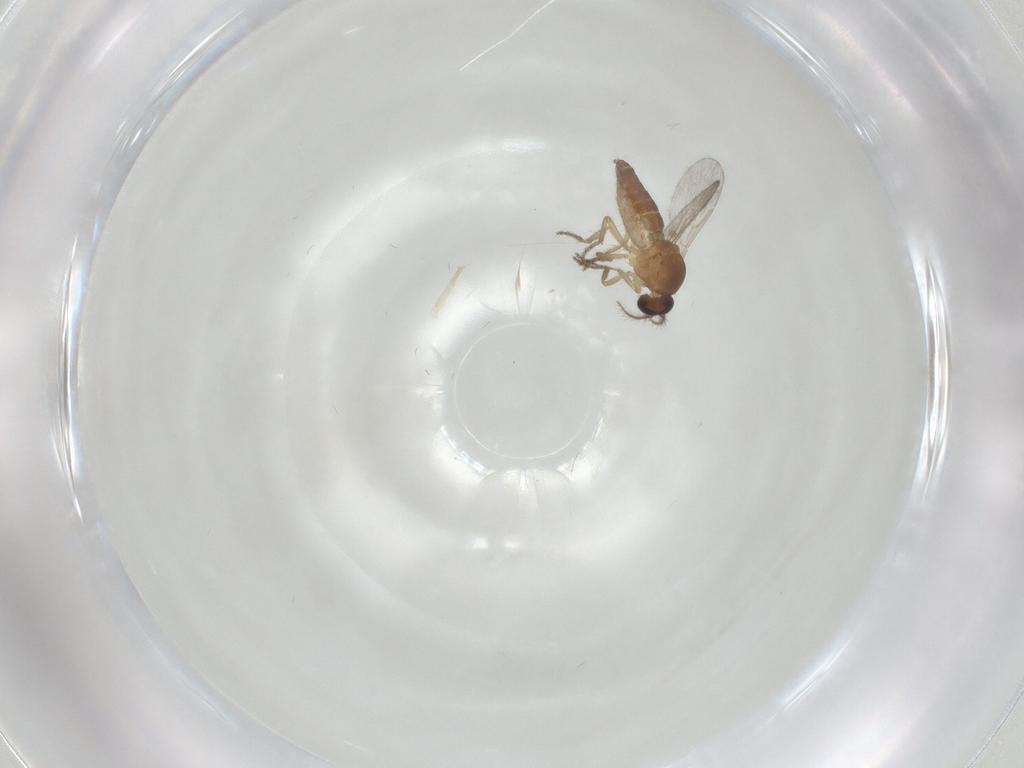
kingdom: Animalia
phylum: Arthropoda
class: Insecta
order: Diptera
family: Ceratopogonidae
